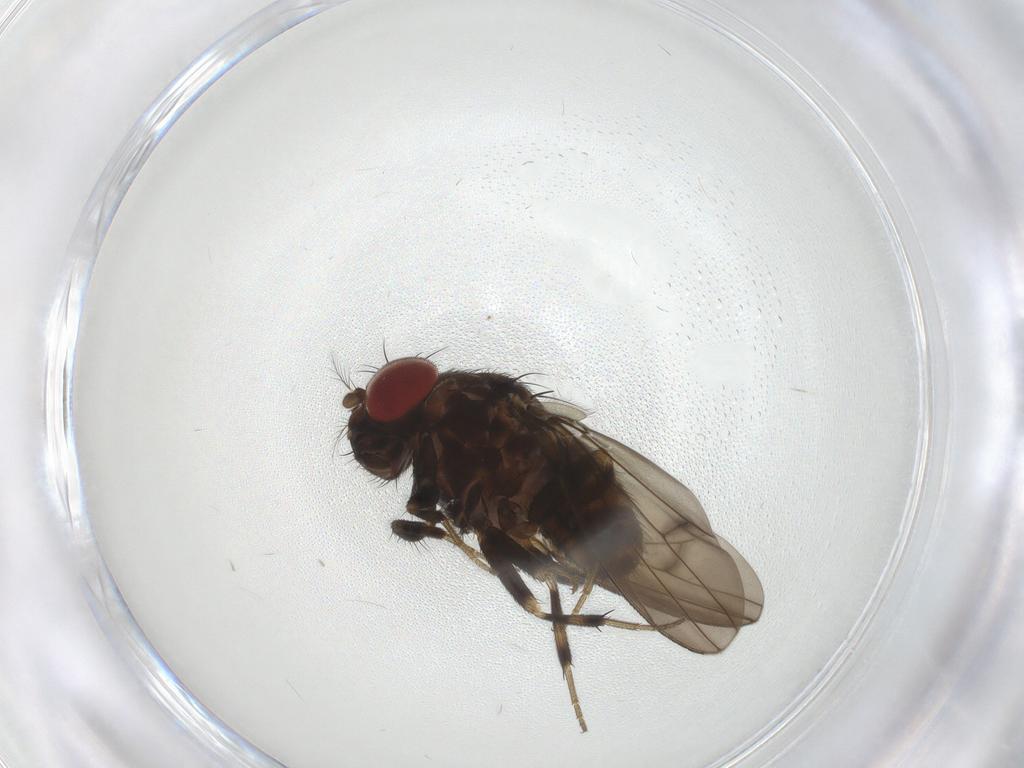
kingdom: Animalia
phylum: Arthropoda
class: Insecta
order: Diptera
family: Drosophilidae
